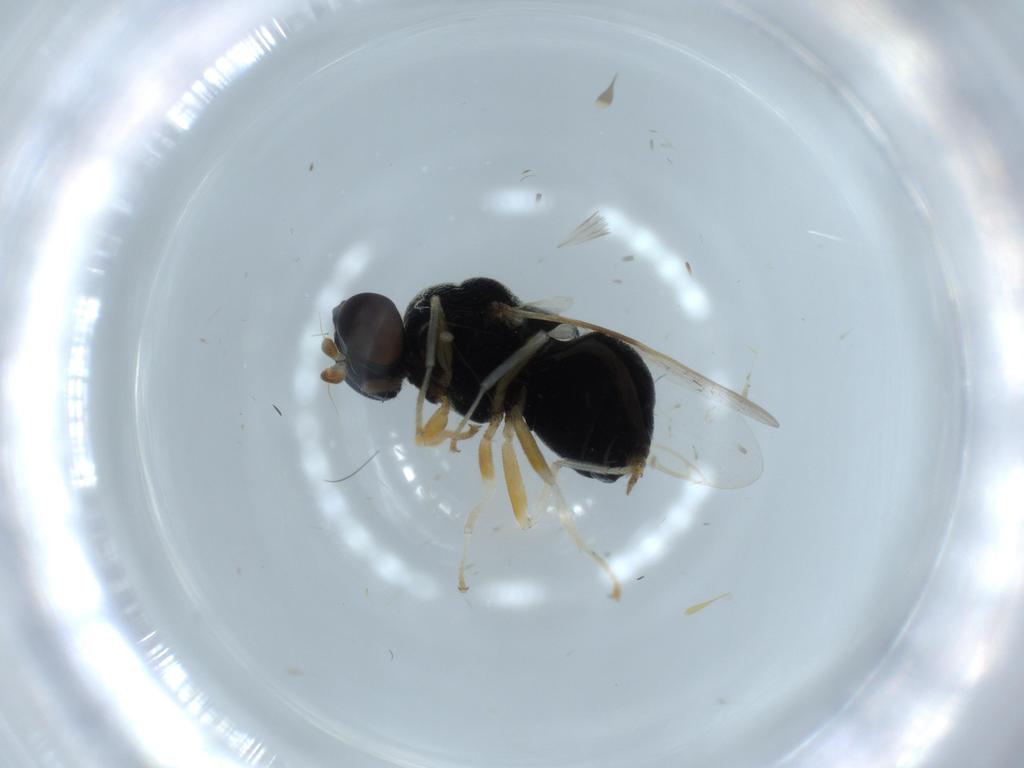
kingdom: Animalia
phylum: Arthropoda
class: Insecta
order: Diptera
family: Stratiomyidae
